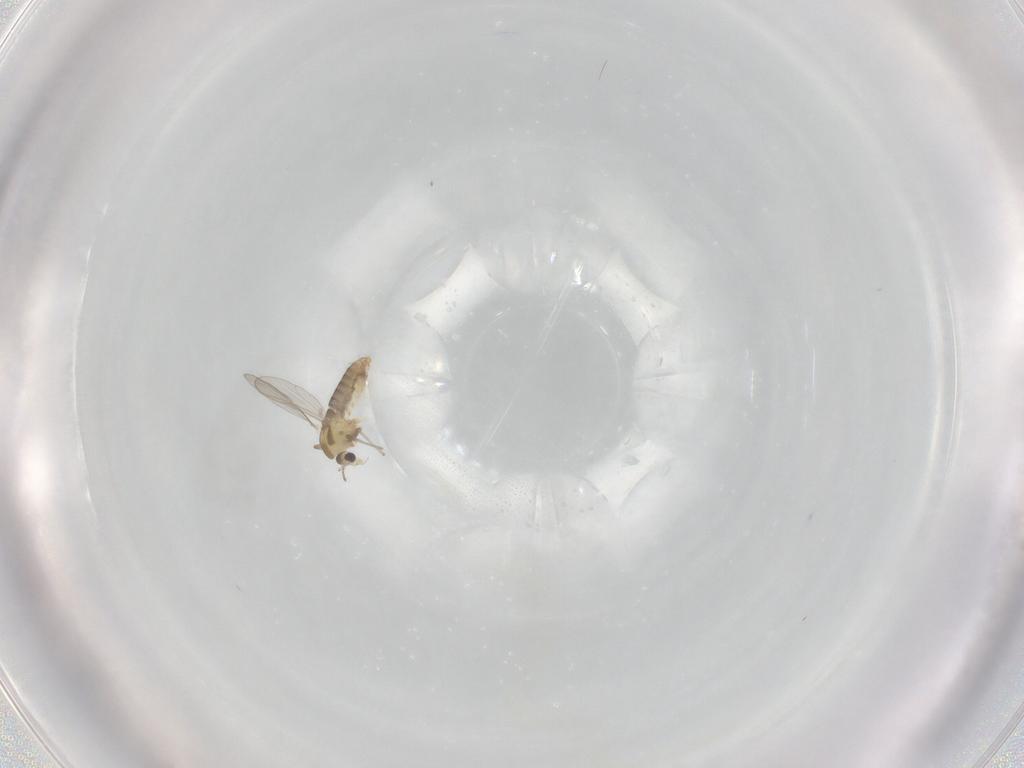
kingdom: Animalia
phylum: Arthropoda
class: Insecta
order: Diptera
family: Chironomidae
